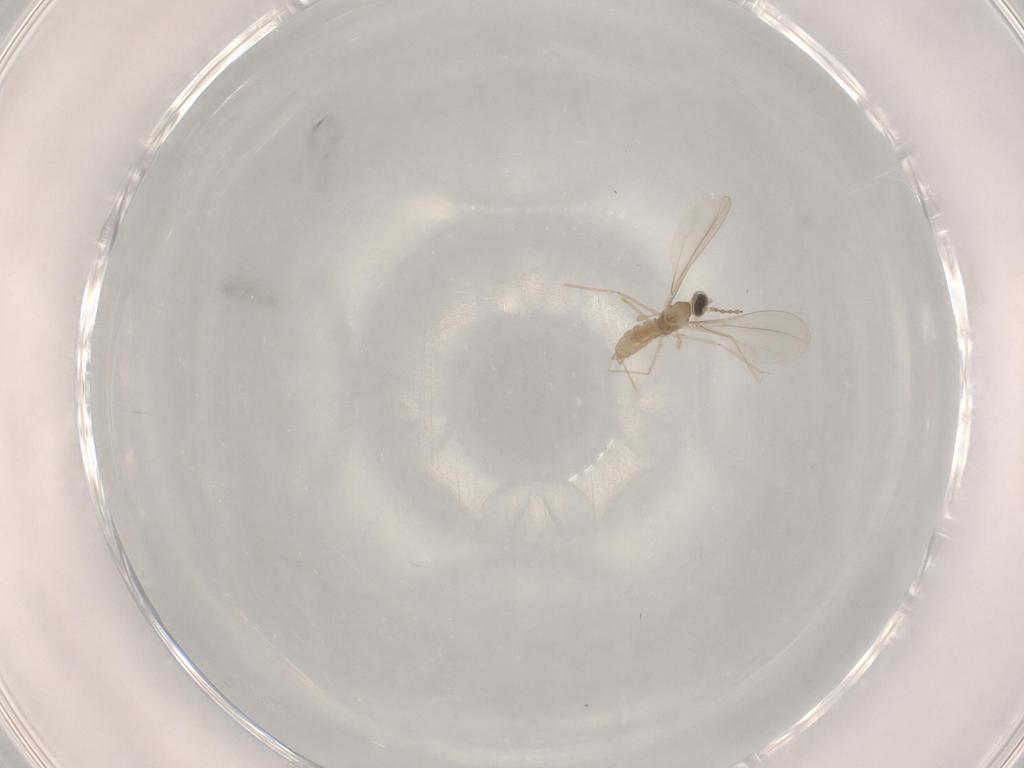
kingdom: Animalia
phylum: Arthropoda
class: Insecta
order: Diptera
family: Cecidomyiidae
